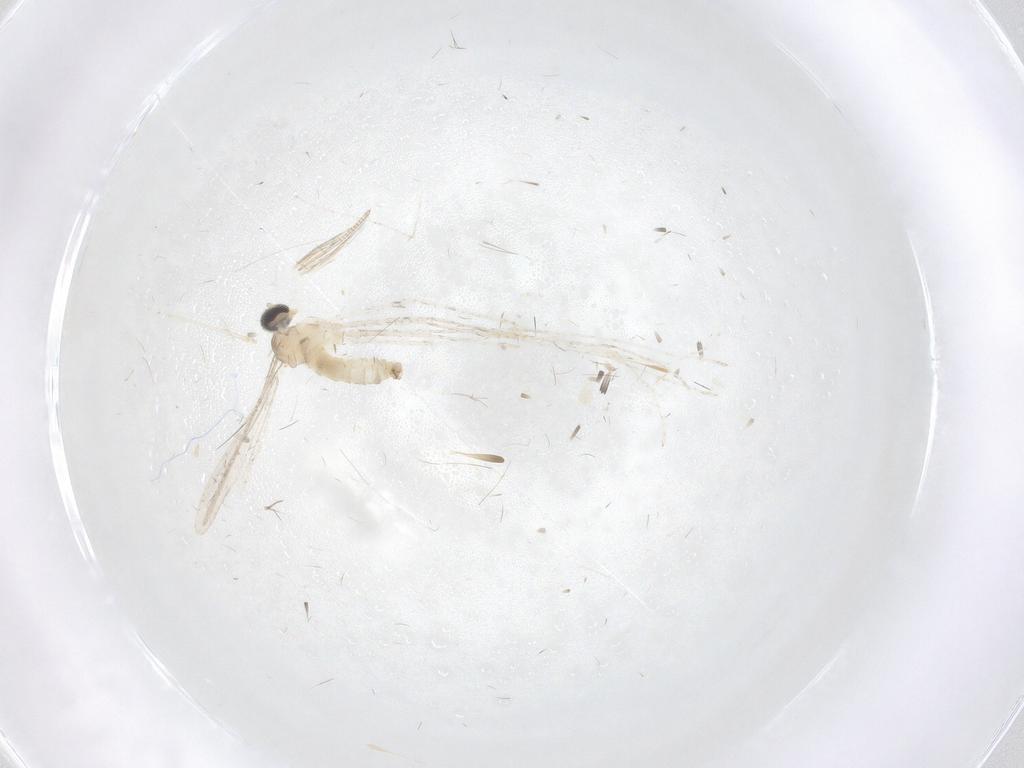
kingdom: Animalia
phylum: Arthropoda
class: Insecta
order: Diptera
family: Cecidomyiidae
